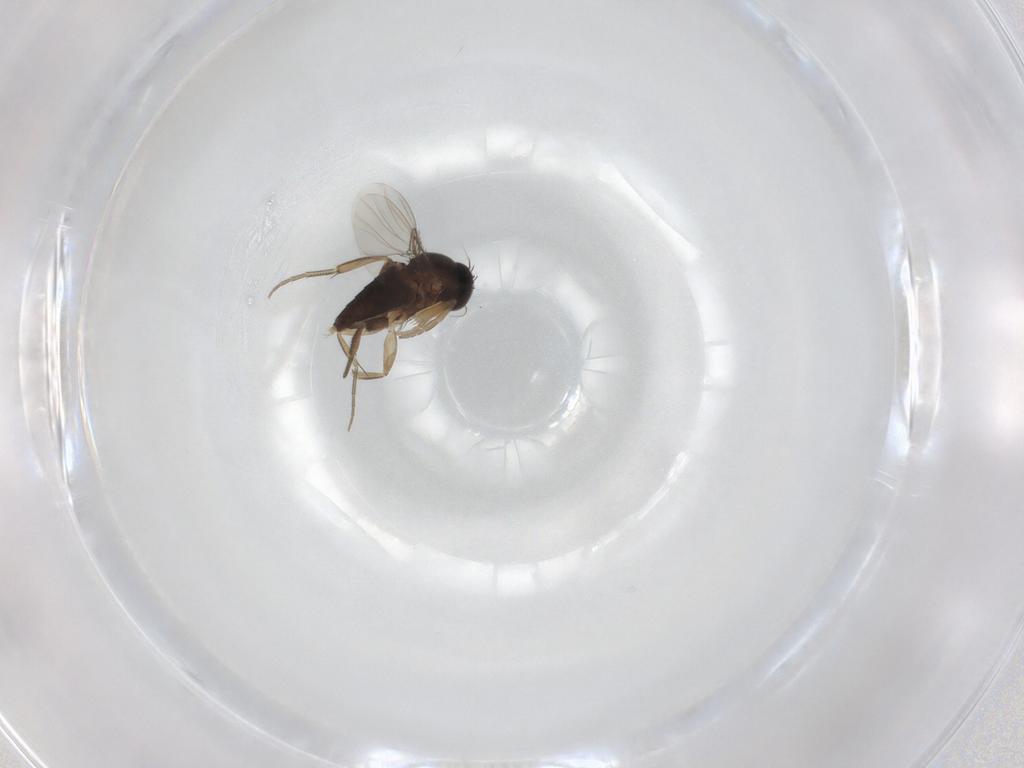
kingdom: Animalia
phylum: Arthropoda
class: Insecta
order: Diptera
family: Phoridae
